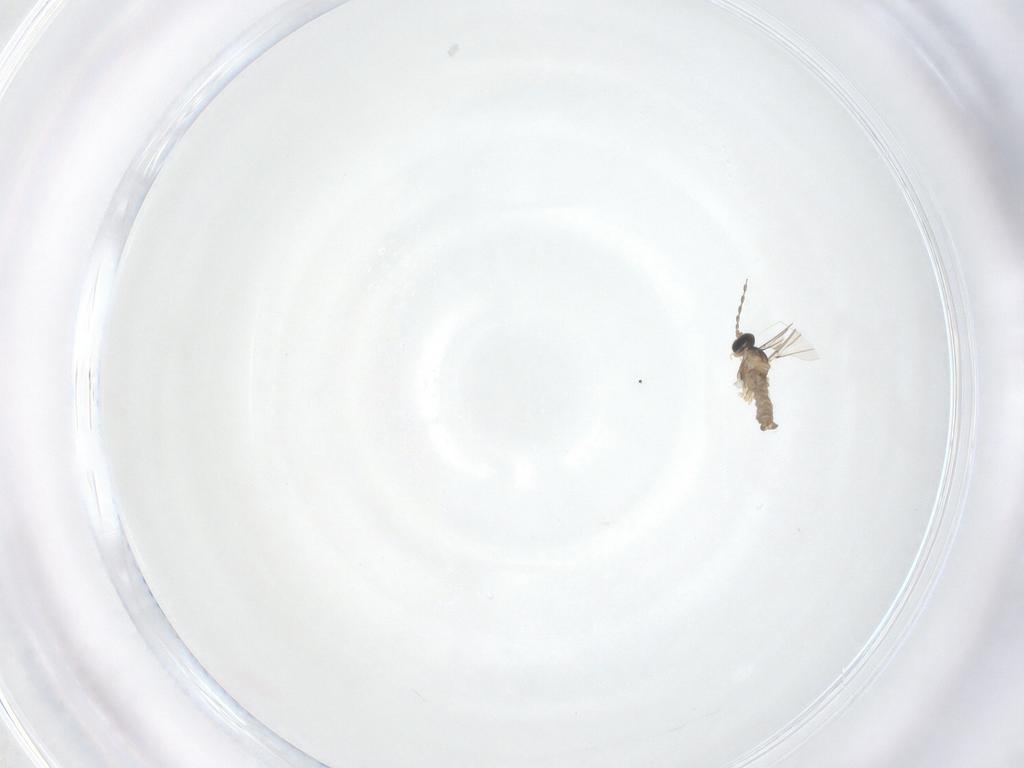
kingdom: Animalia
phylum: Arthropoda
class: Insecta
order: Diptera
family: Cecidomyiidae
